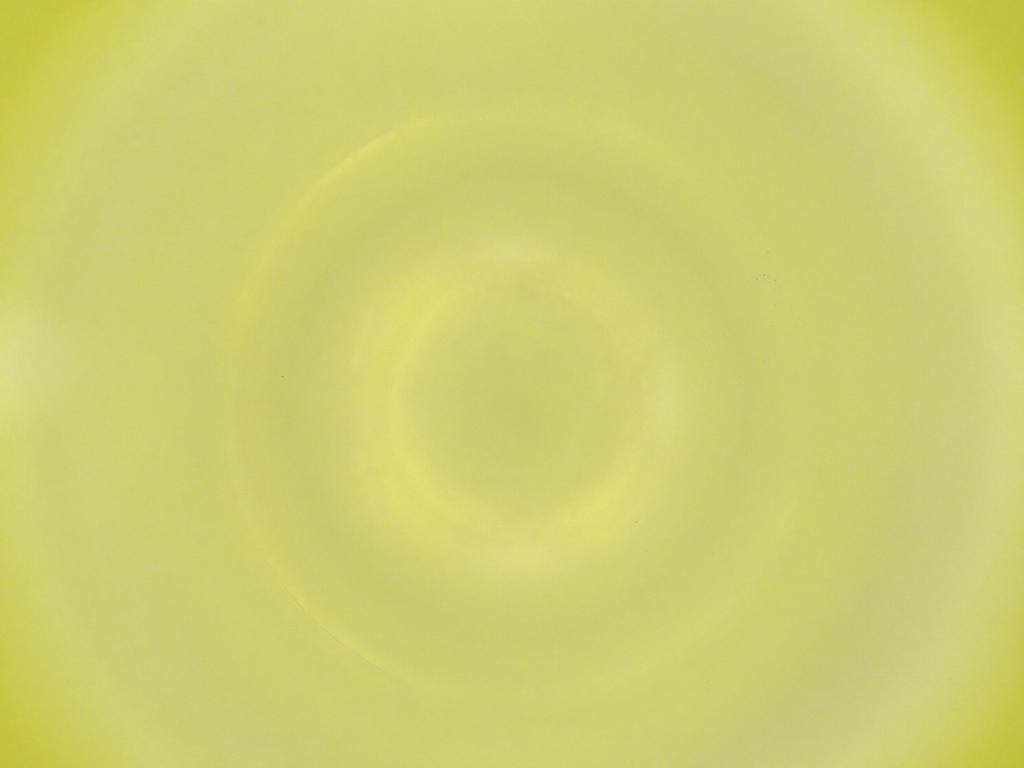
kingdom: Animalia
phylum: Arthropoda
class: Insecta
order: Diptera
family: Cecidomyiidae
